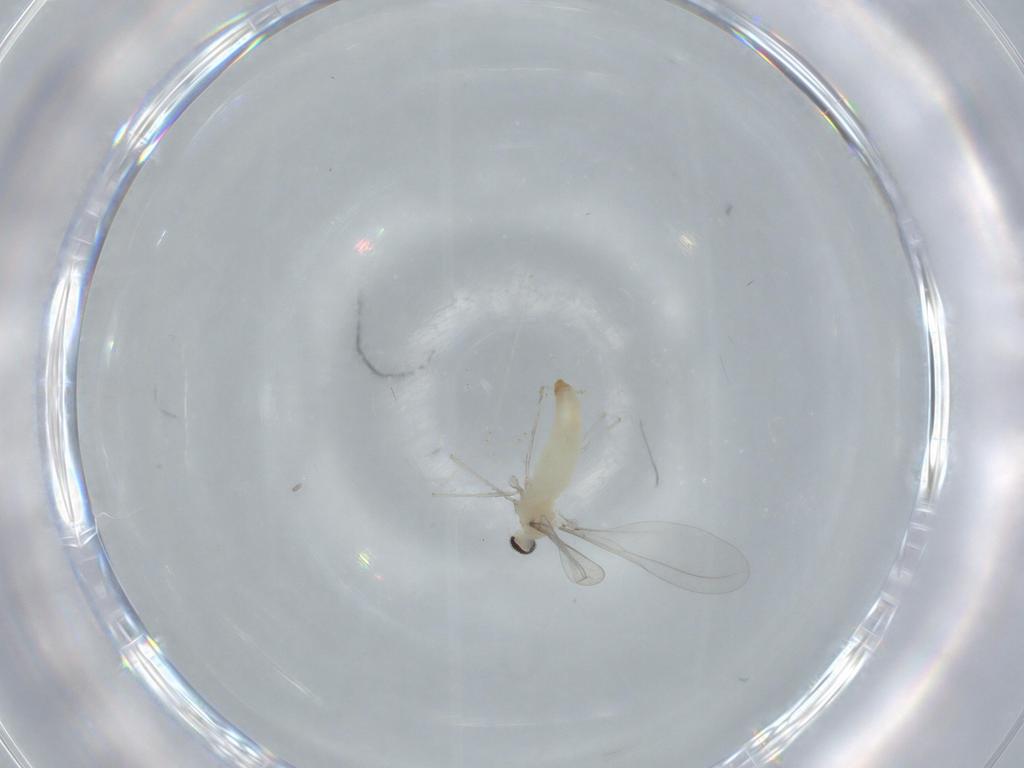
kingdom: Animalia
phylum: Arthropoda
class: Insecta
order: Diptera
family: Cecidomyiidae
